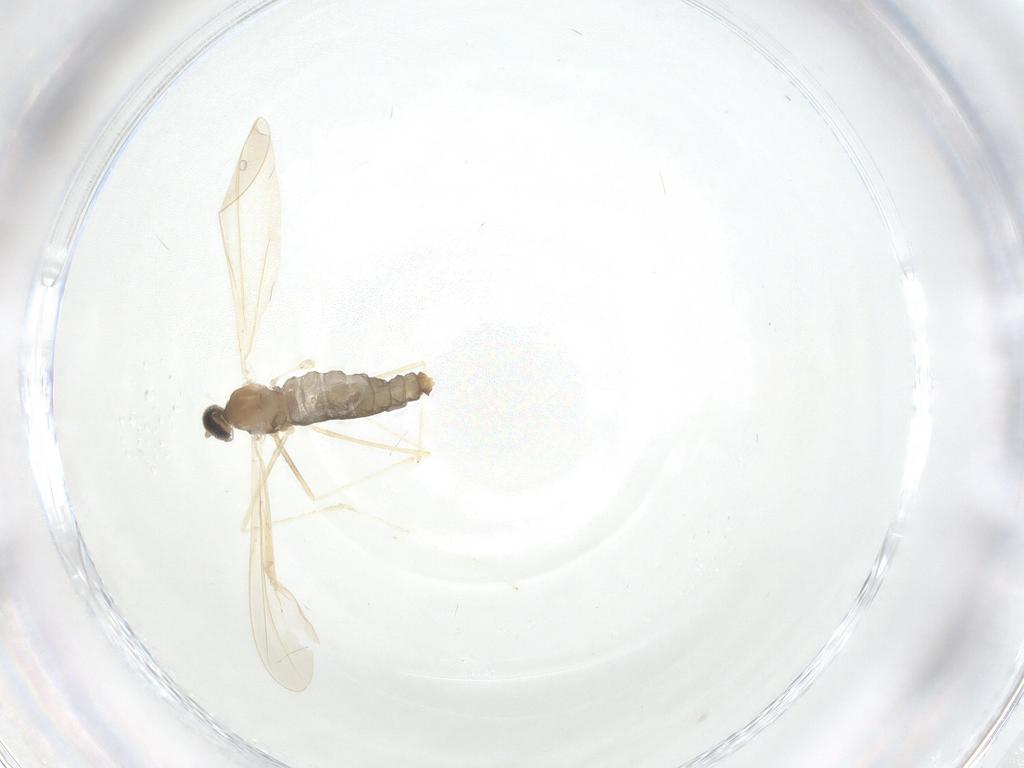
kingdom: Animalia
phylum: Arthropoda
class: Insecta
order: Diptera
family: Cecidomyiidae
